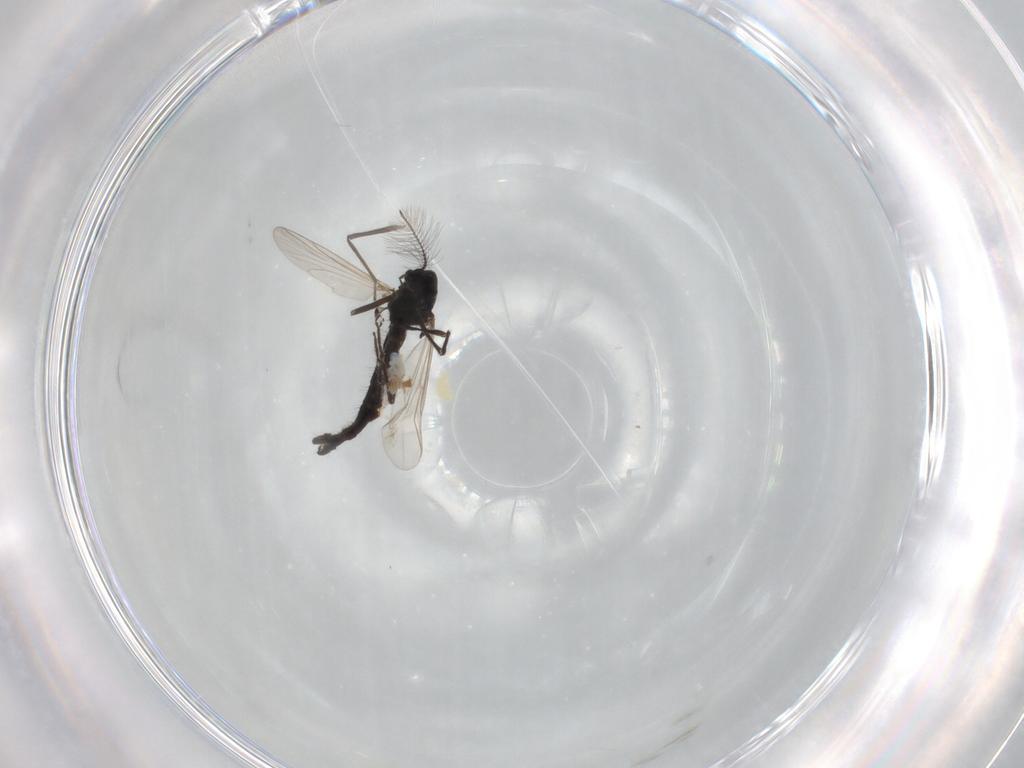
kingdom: Animalia
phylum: Arthropoda
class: Insecta
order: Diptera
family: Chironomidae
